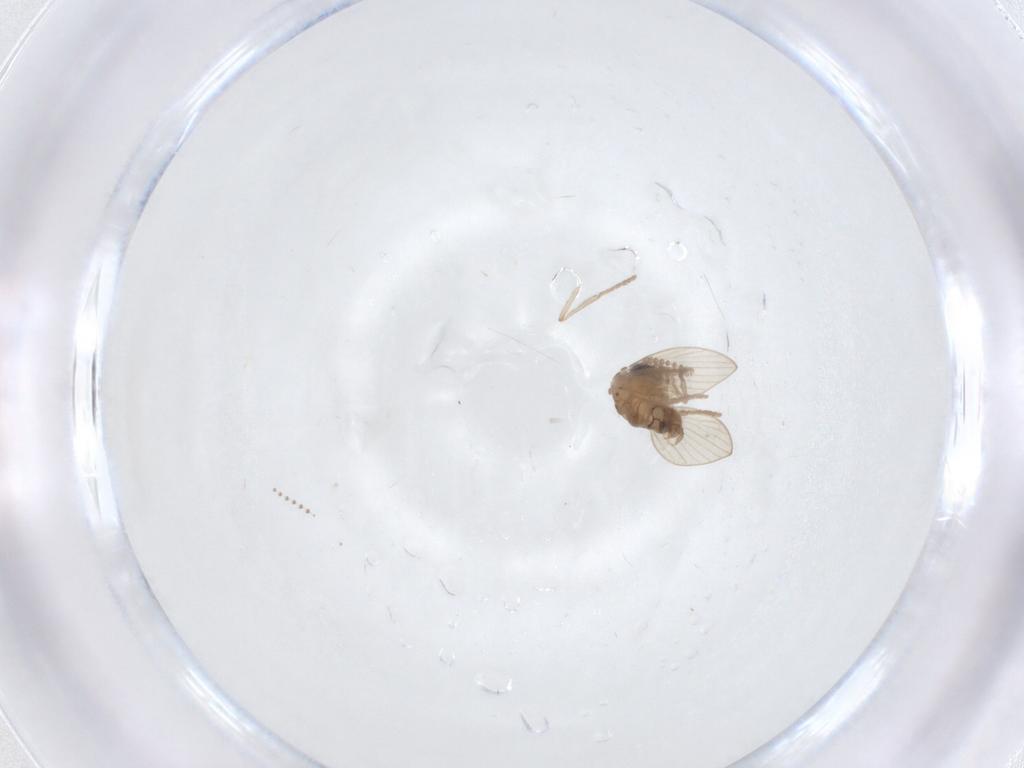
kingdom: Animalia
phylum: Arthropoda
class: Insecta
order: Diptera
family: Psychodidae
